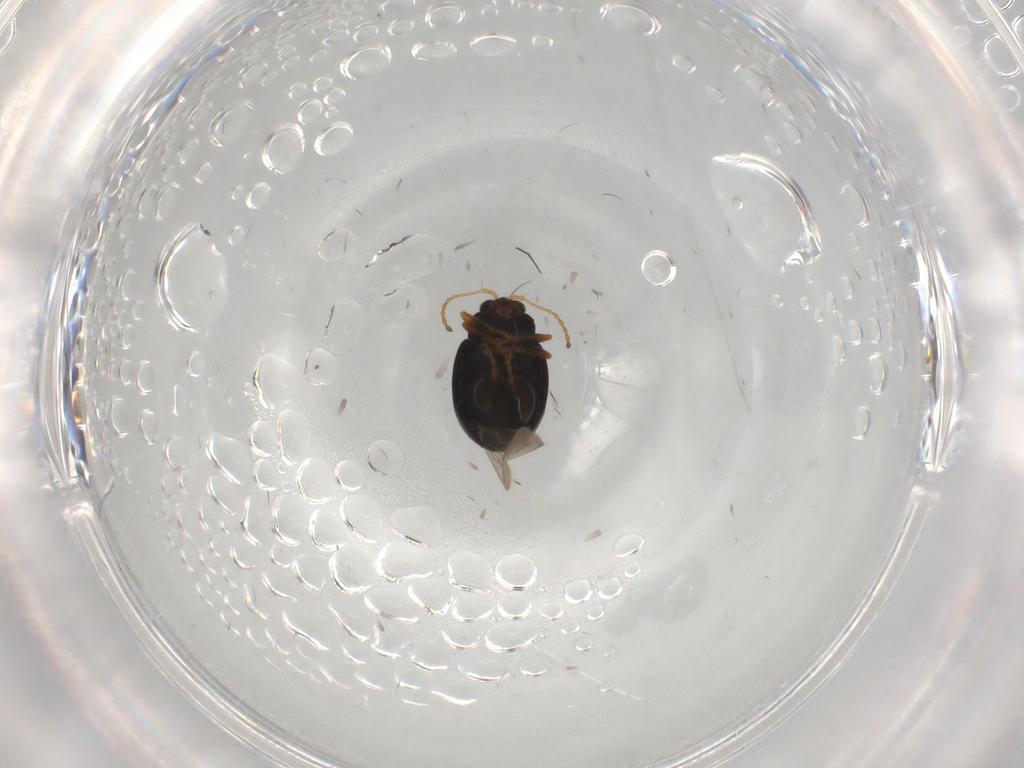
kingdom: Animalia
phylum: Arthropoda
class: Insecta
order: Coleoptera
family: Chrysomelidae
